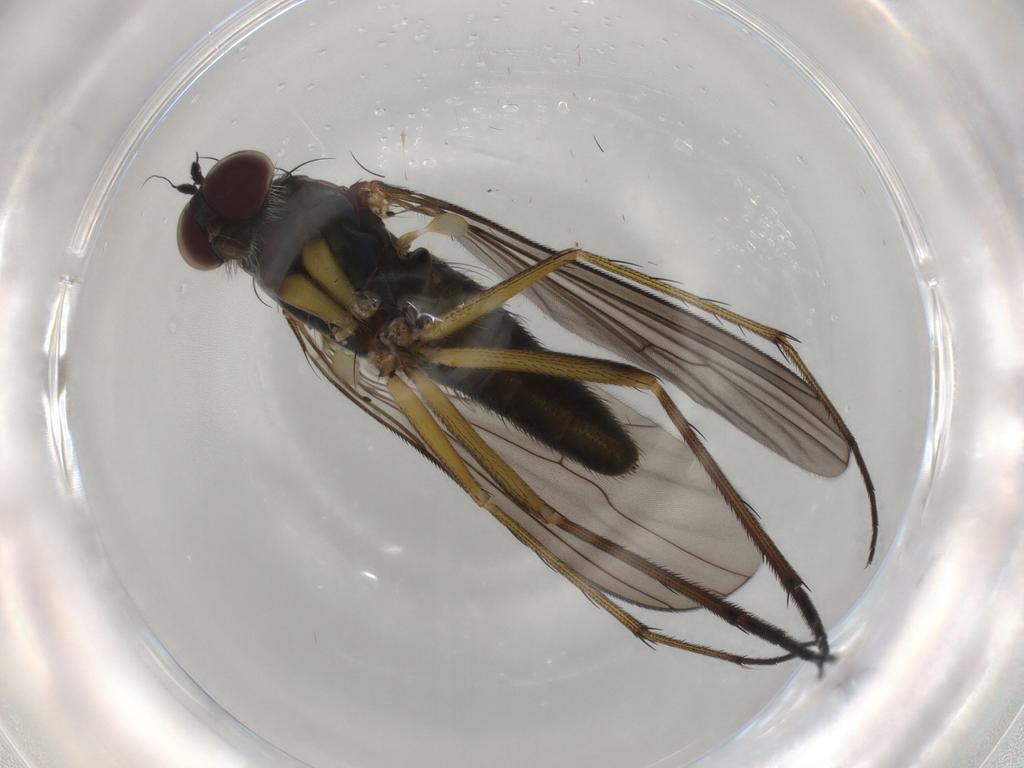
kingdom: Animalia
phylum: Arthropoda
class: Insecta
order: Diptera
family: Dolichopodidae
